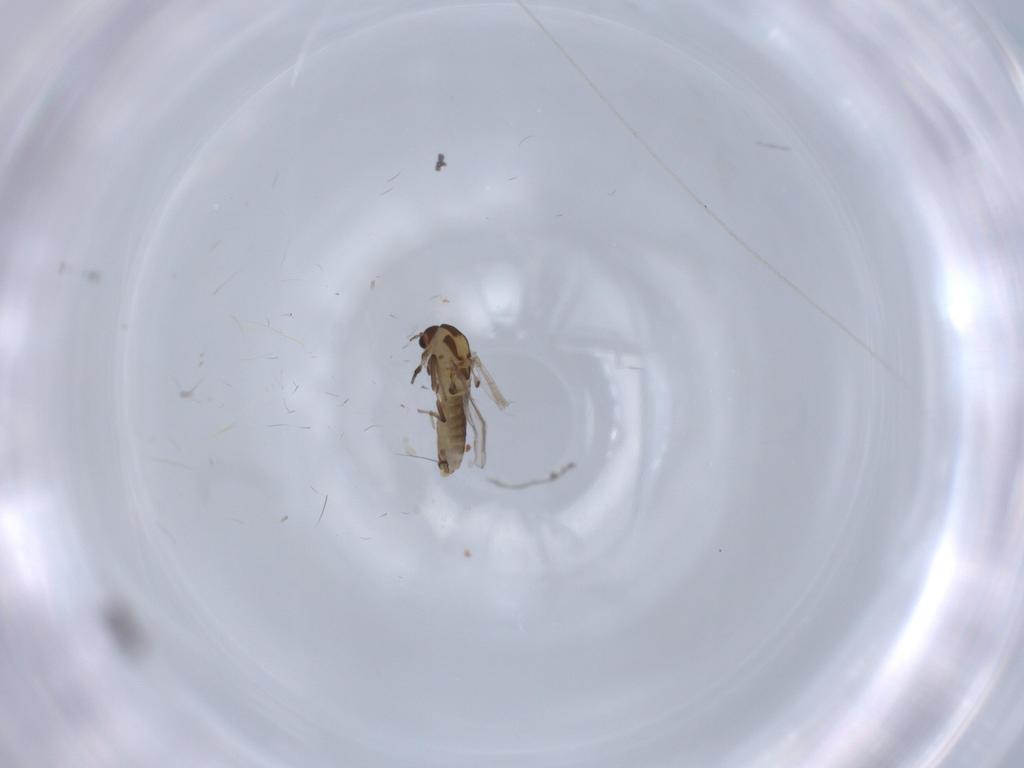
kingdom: Animalia
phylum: Arthropoda
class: Insecta
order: Diptera
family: Chironomidae
